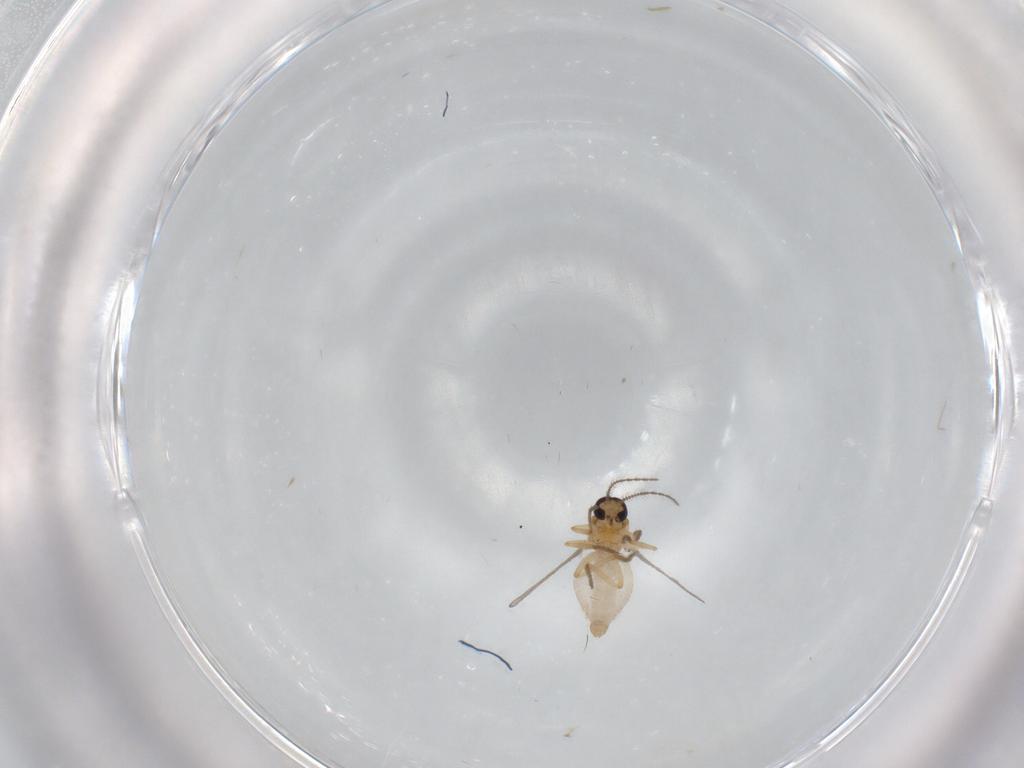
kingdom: Animalia
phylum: Arthropoda
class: Insecta
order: Diptera
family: Ceratopogonidae
